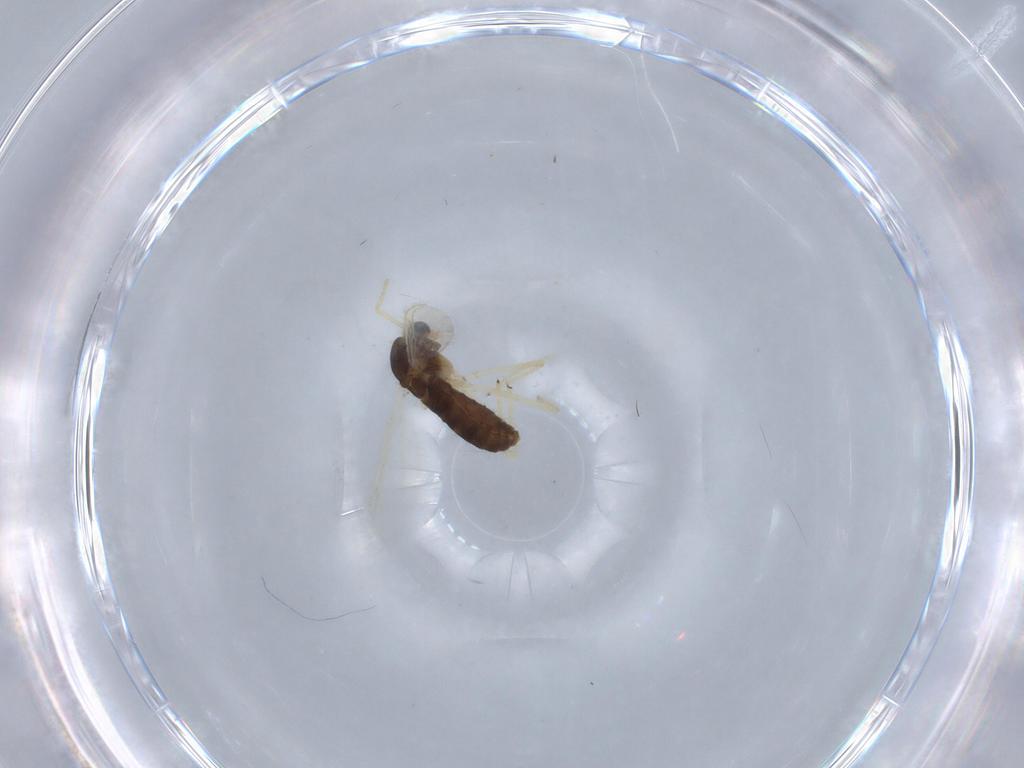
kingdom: Animalia
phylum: Arthropoda
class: Insecta
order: Diptera
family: Chironomidae
